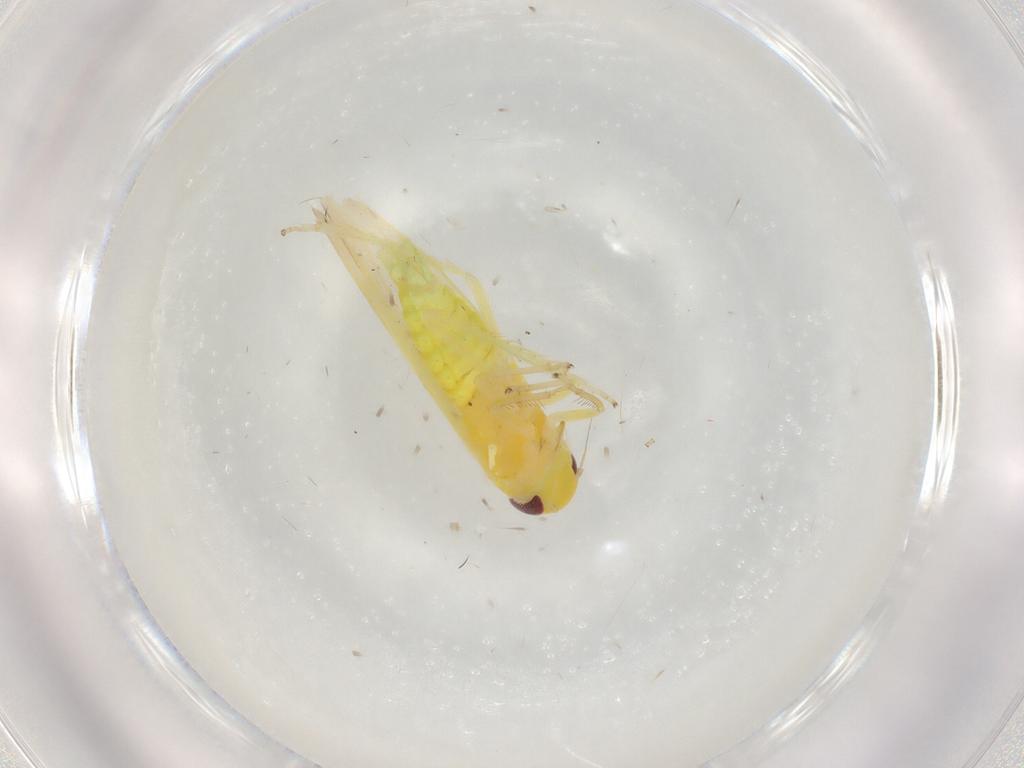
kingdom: Animalia
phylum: Arthropoda
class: Insecta
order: Hemiptera
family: Cicadellidae
